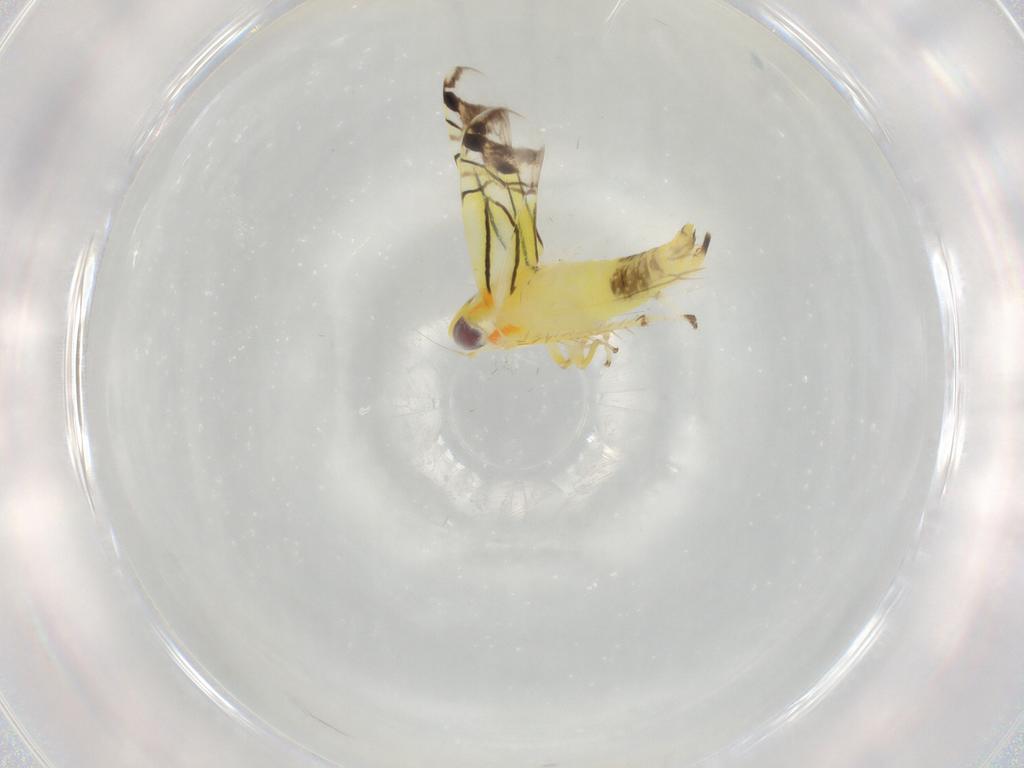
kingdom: Animalia
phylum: Arthropoda
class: Insecta
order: Hemiptera
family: Cicadellidae
